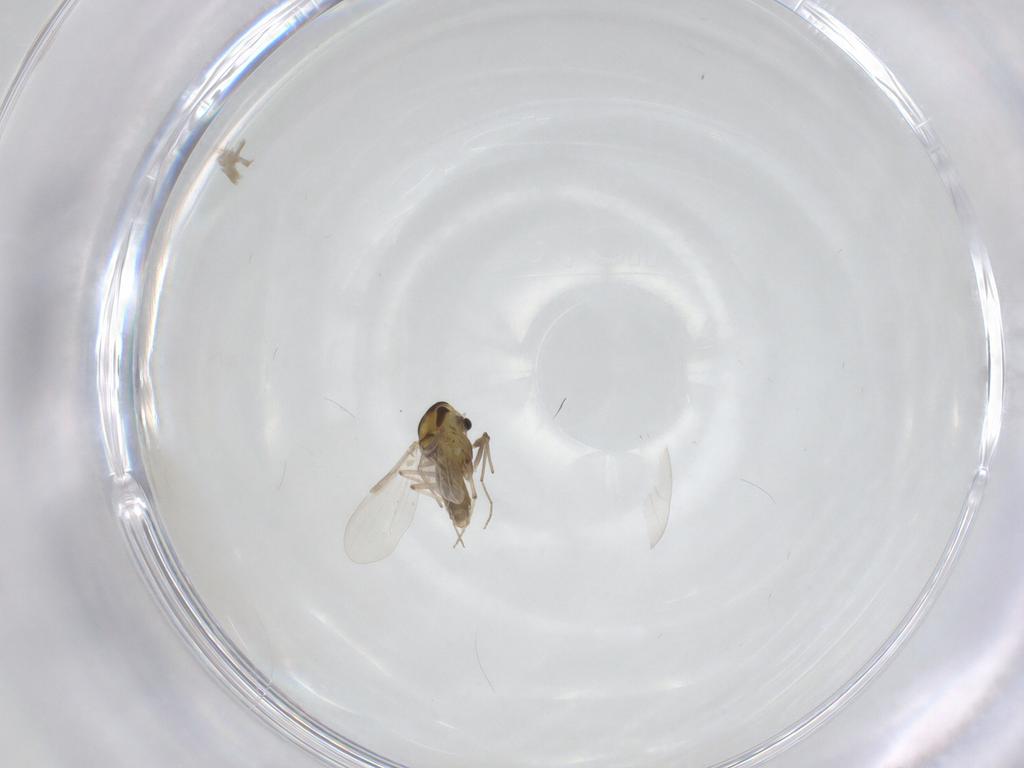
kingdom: Animalia
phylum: Arthropoda
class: Insecta
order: Diptera
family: Chironomidae
